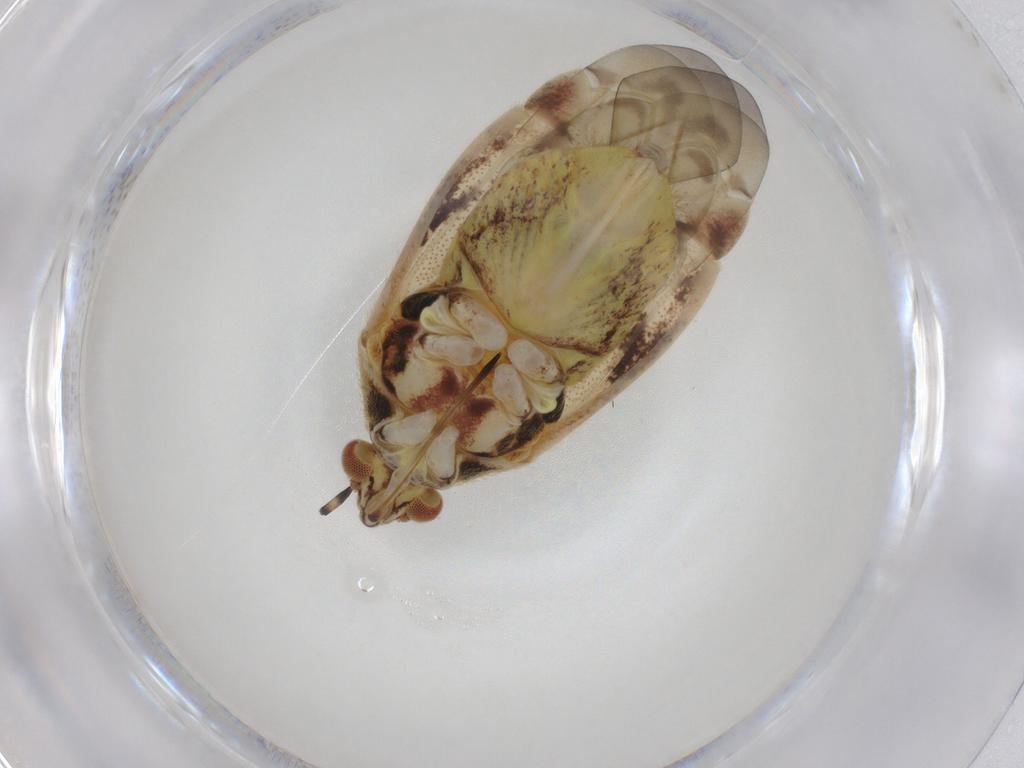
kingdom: Animalia
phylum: Arthropoda
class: Insecta
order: Hemiptera
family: Miridae
